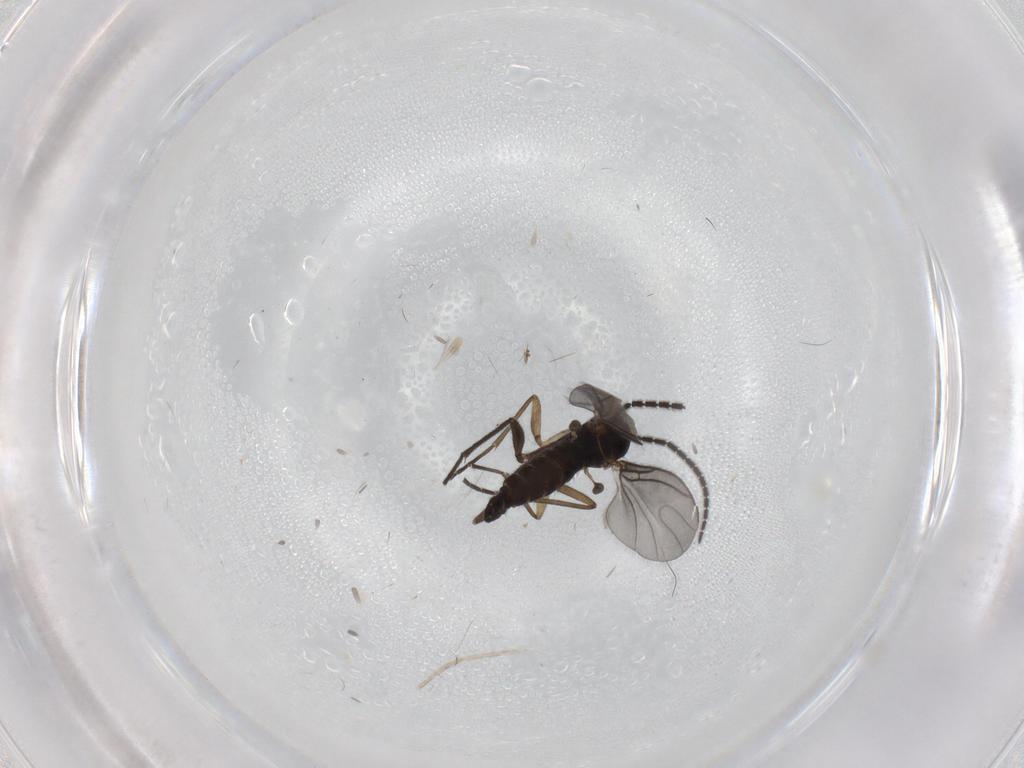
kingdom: Animalia
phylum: Arthropoda
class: Insecta
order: Diptera
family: Sciaridae
